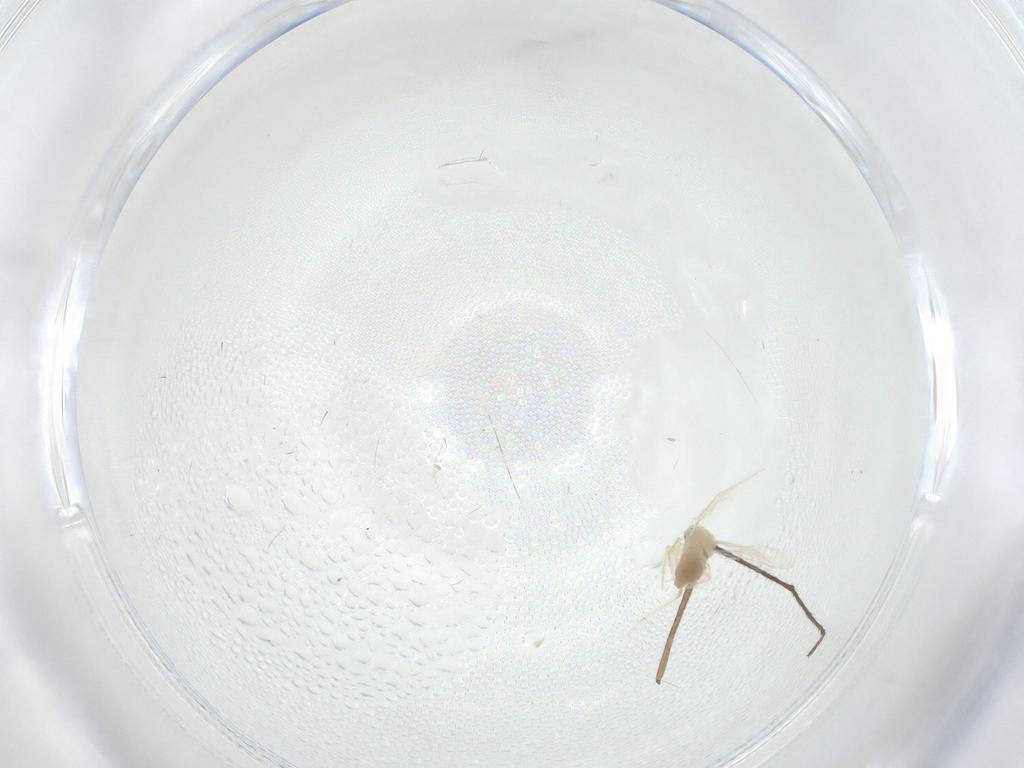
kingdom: Animalia
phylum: Arthropoda
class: Insecta
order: Diptera
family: Limoniidae
